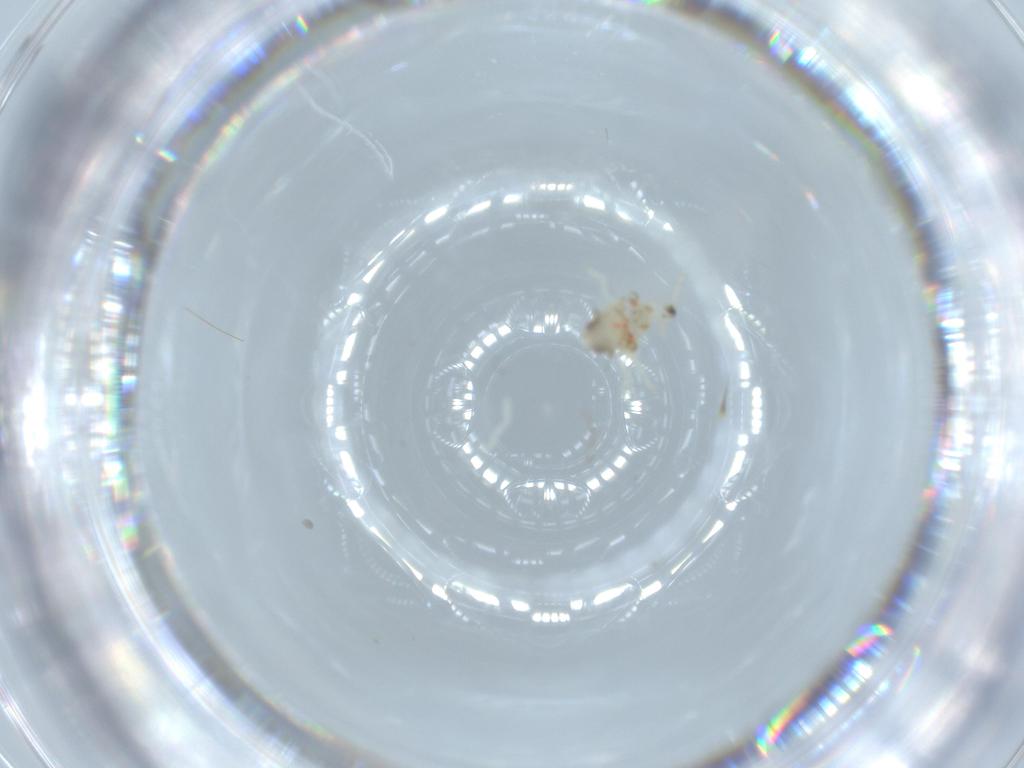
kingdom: Animalia
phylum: Arthropoda
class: Insecta
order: Hemiptera
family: Nogodinidae
